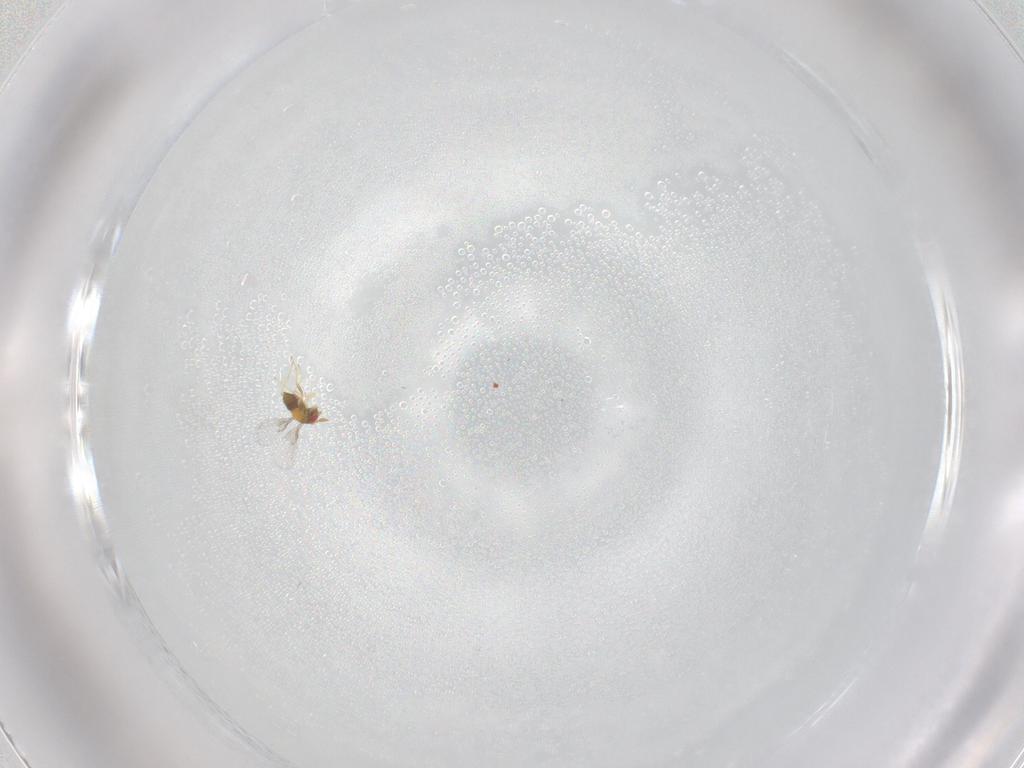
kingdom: Animalia
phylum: Arthropoda
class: Insecta
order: Hymenoptera
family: Trichogrammatidae
